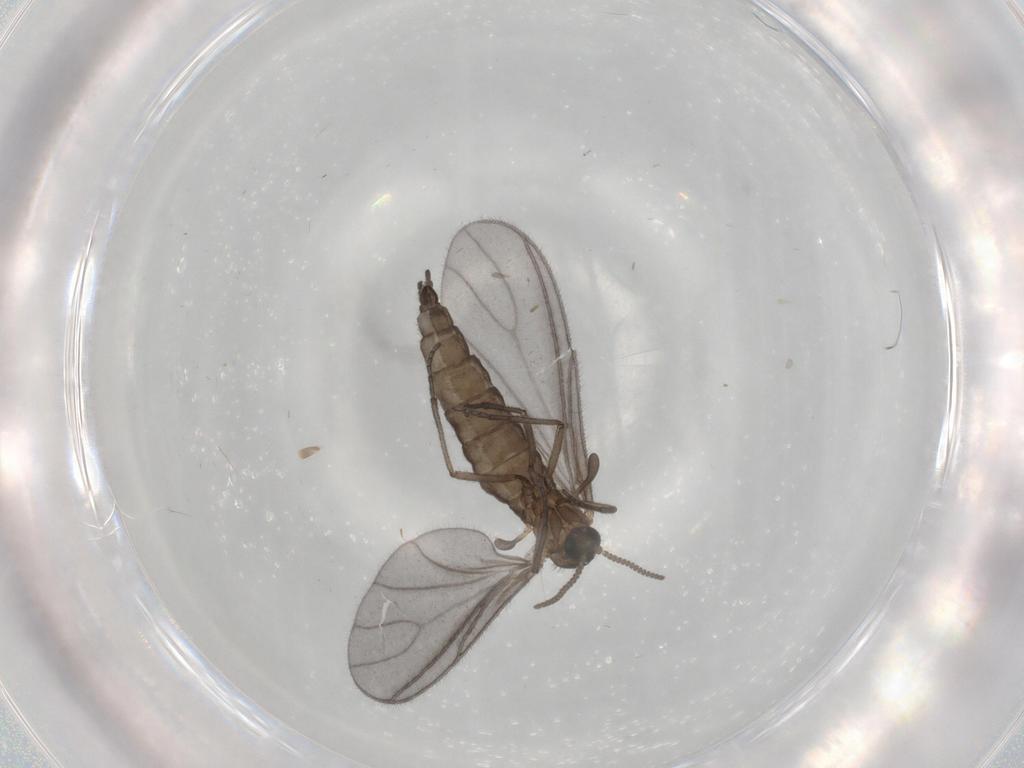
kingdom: Animalia
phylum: Arthropoda
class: Insecta
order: Diptera
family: Sciaridae
